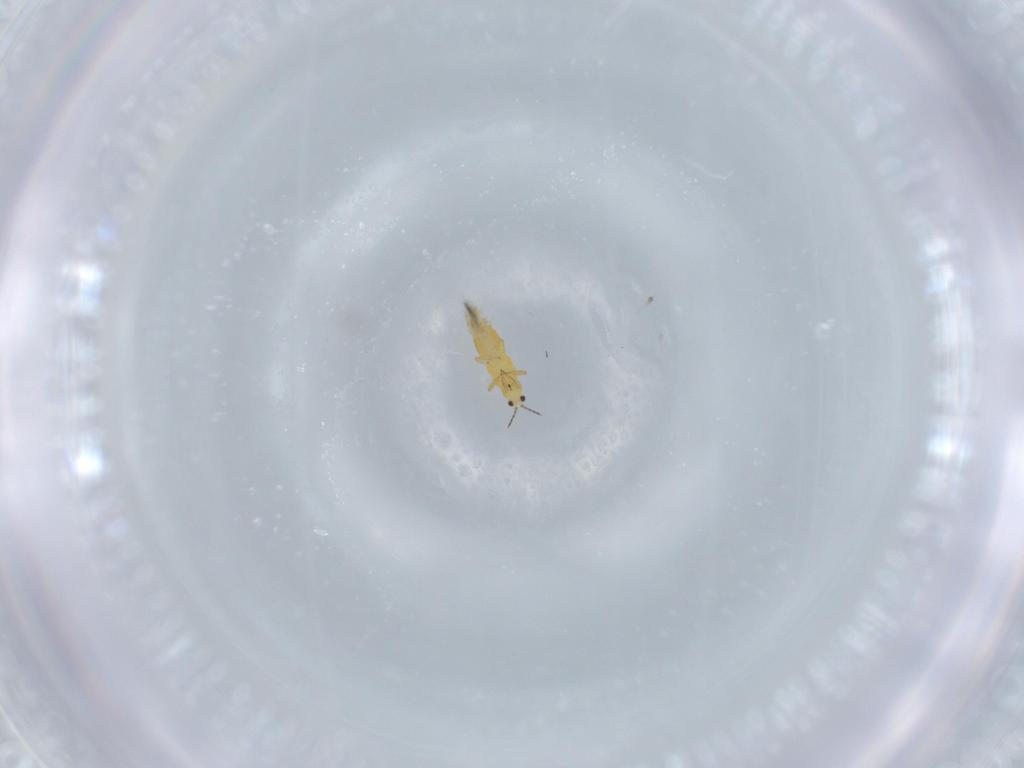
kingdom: Animalia
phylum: Arthropoda
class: Insecta
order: Thysanoptera
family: Thripidae
